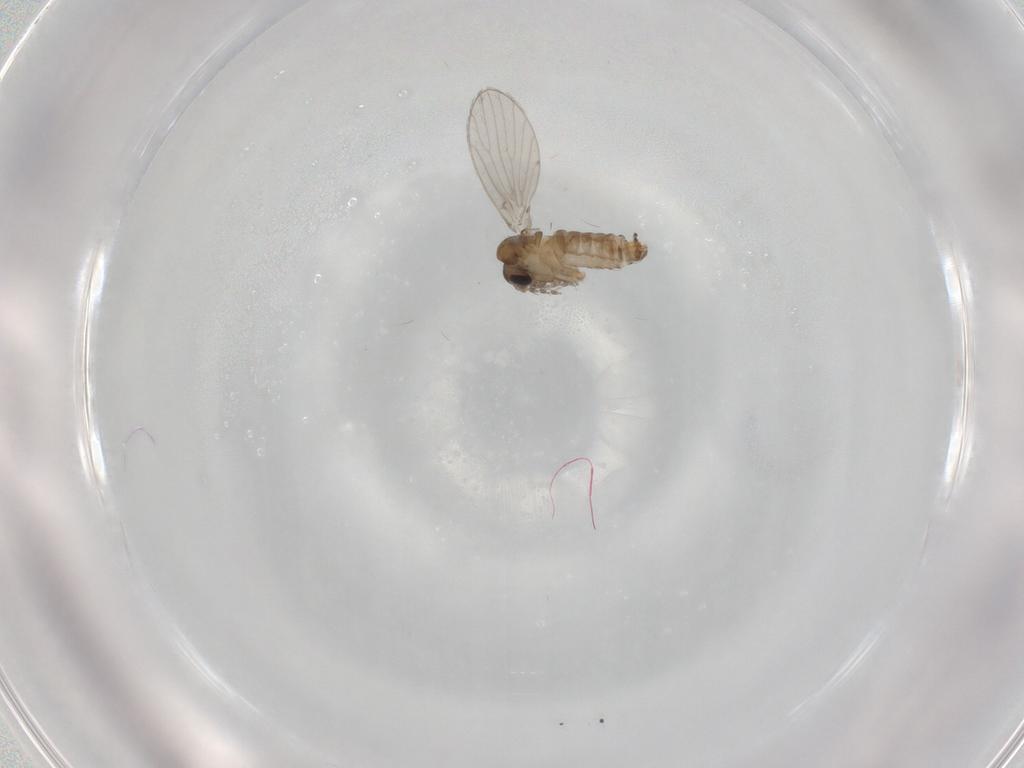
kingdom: Animalia
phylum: Arthropoda
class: Insecta
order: Diptera
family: Psychodidae
